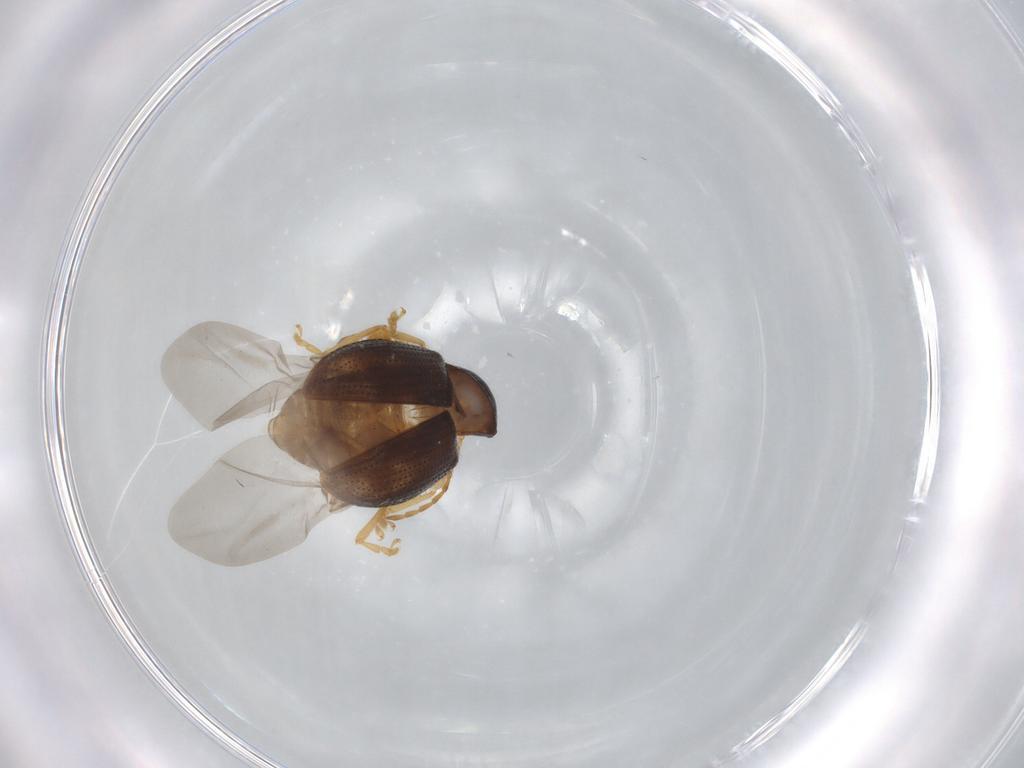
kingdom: Animalia
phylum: Arthropoda
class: Insecta
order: Coleoptera
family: Chrysomelidae
